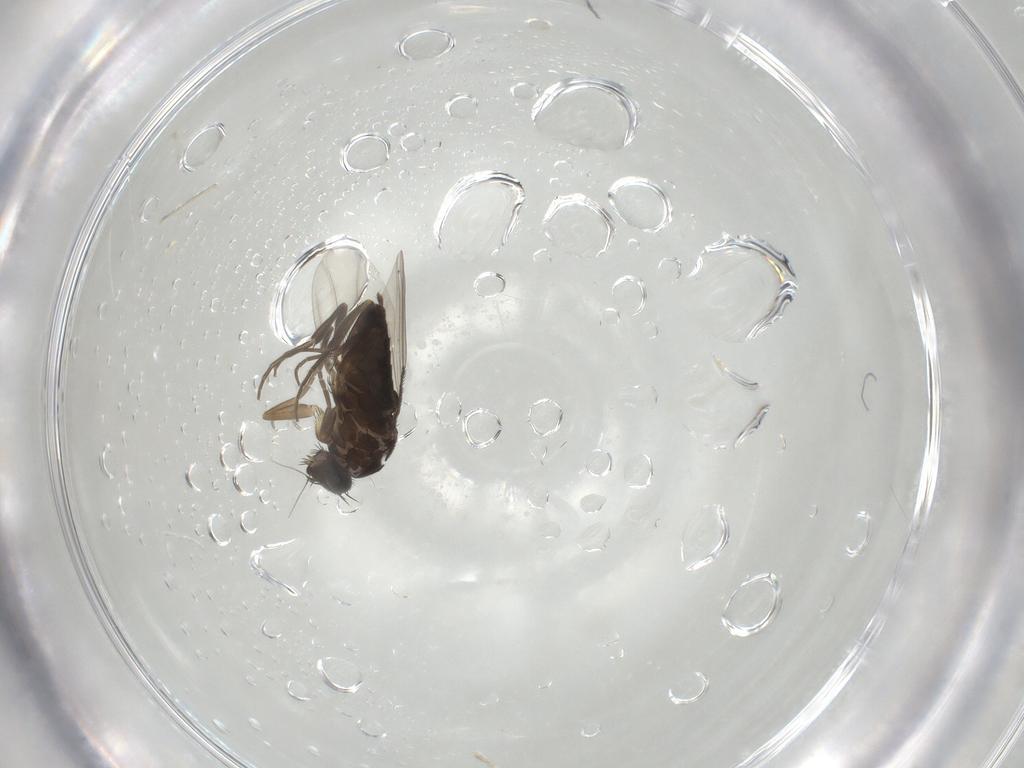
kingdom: Animalia
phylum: Arthropoda
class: Insecta
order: Diptera
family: Phoridae
